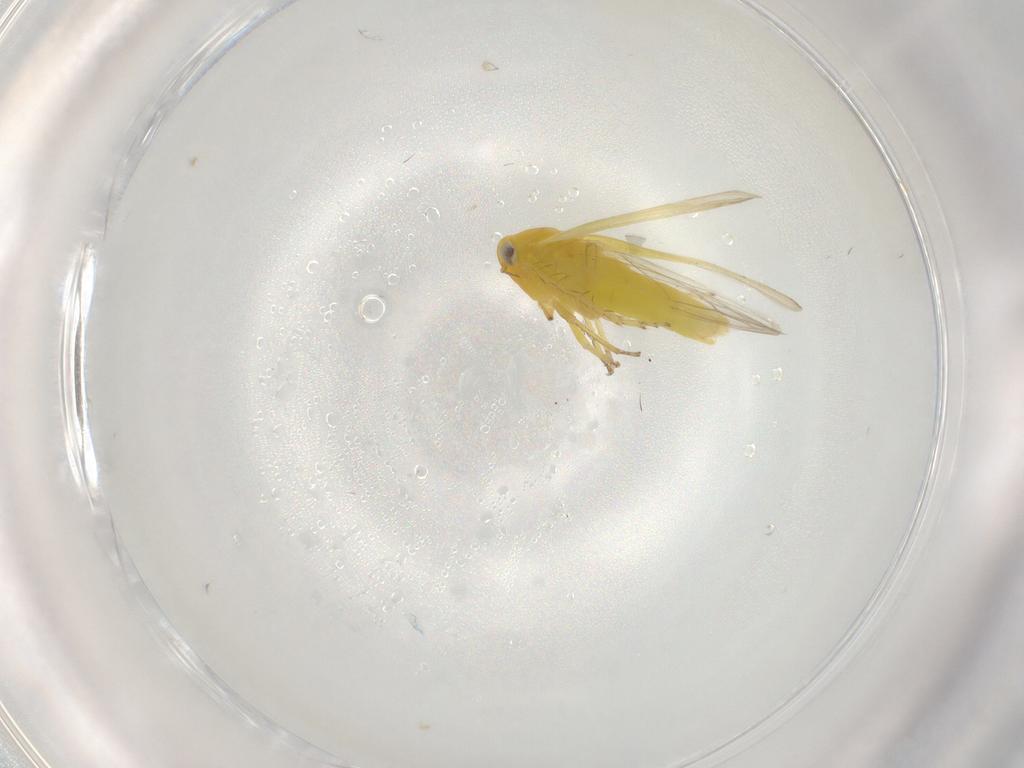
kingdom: Animalia
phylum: Arthropoda
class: Insecta
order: Hemiptera
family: Cicadellidae
